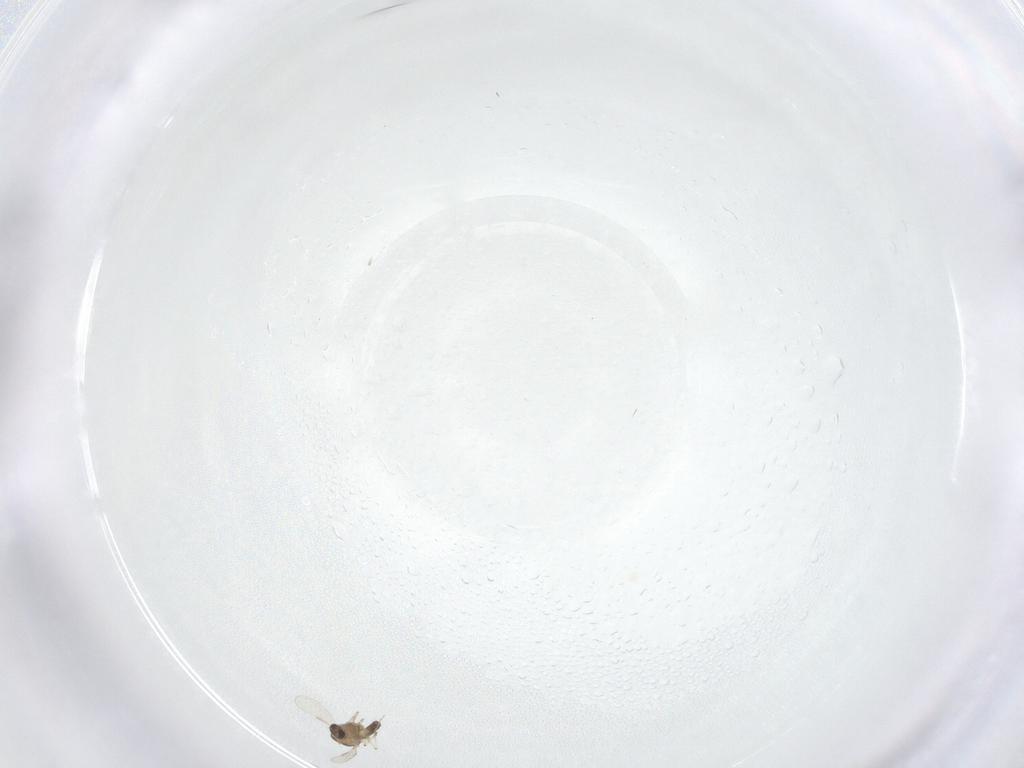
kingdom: Animalia
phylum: Arthropoda
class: Insecta
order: Diptera
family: Chironomidae
